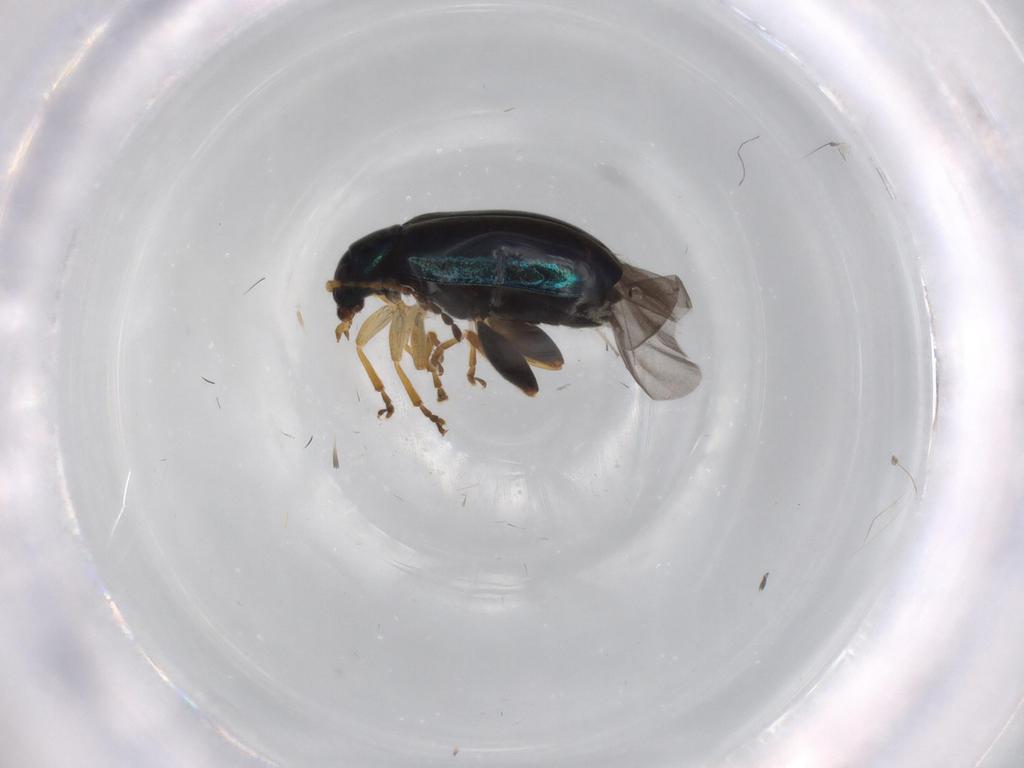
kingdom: Animalia
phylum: Arthropoda
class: Insecta
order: Coleoptera
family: Chrysomelidae
